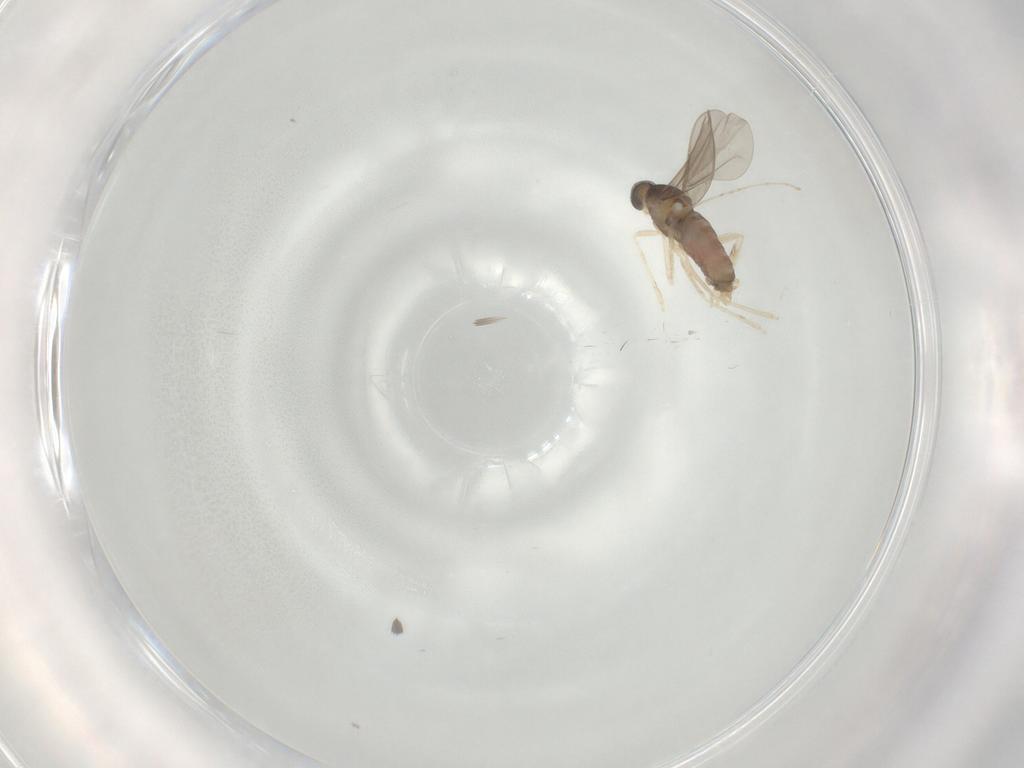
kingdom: Animalia
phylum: Arthropoda
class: Insecta
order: Diptera
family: Cecidomyiidae
